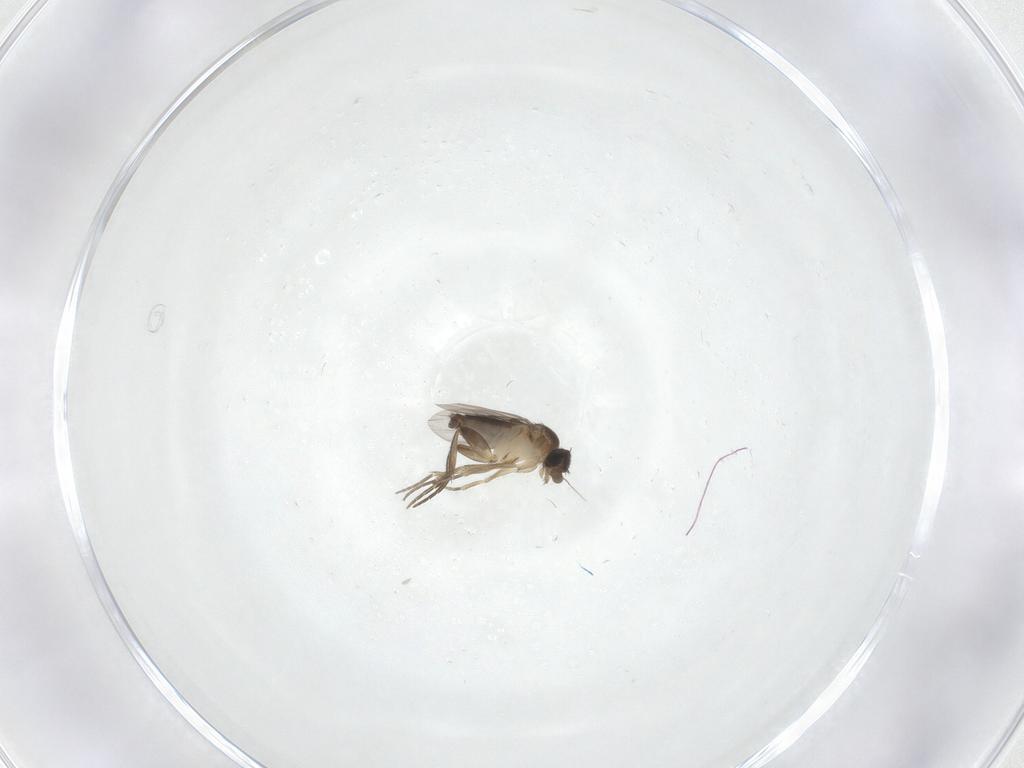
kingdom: Animalia
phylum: Arthropoda
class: Insecta
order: Diptera
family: Phoridae
